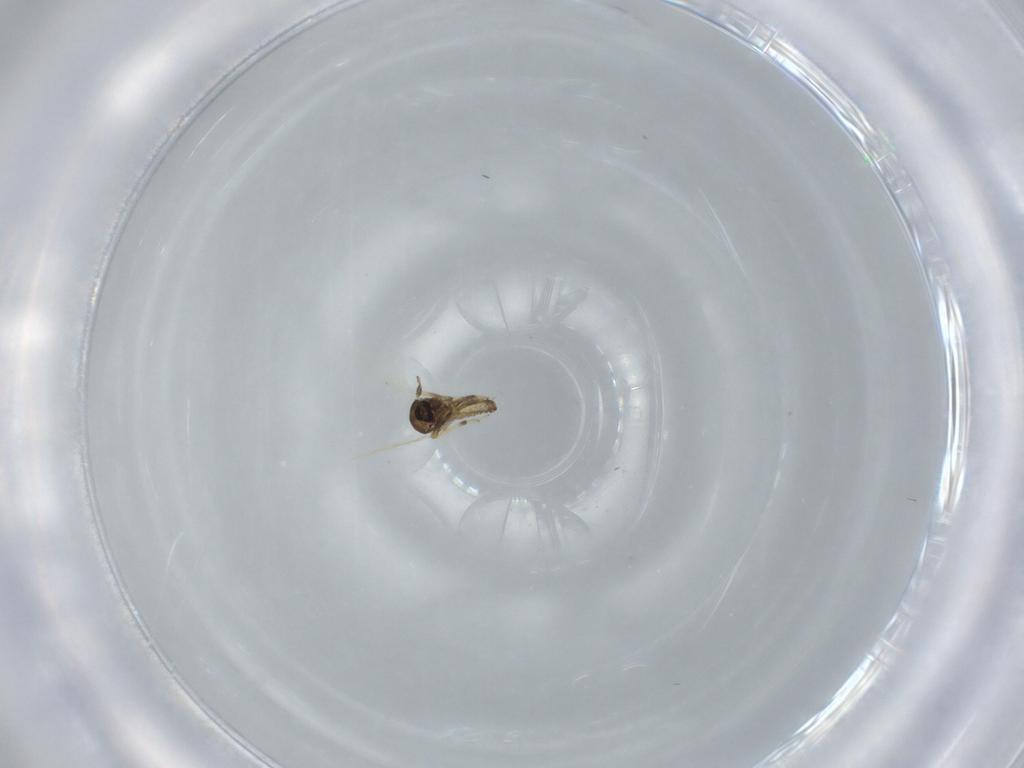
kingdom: Animalia
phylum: Arthropoda
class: Insecta
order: Diptera
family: Ceratopogonidae
